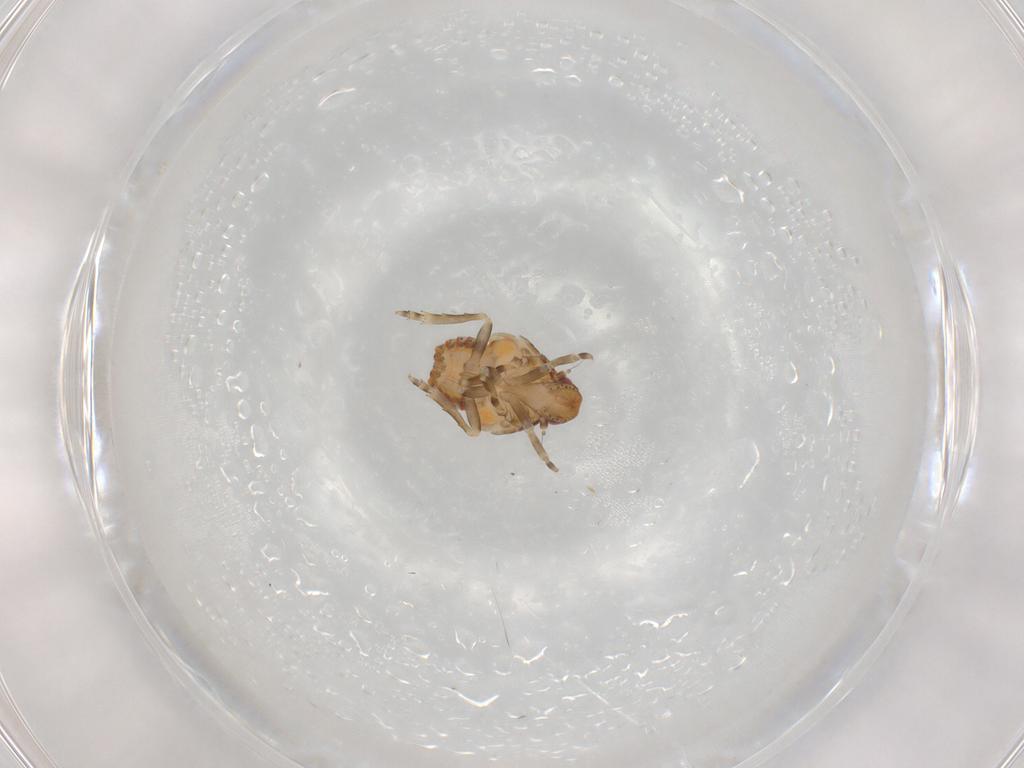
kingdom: Animalia
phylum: Arthropoda
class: Insecta
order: Hemiptera
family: Flatidae
